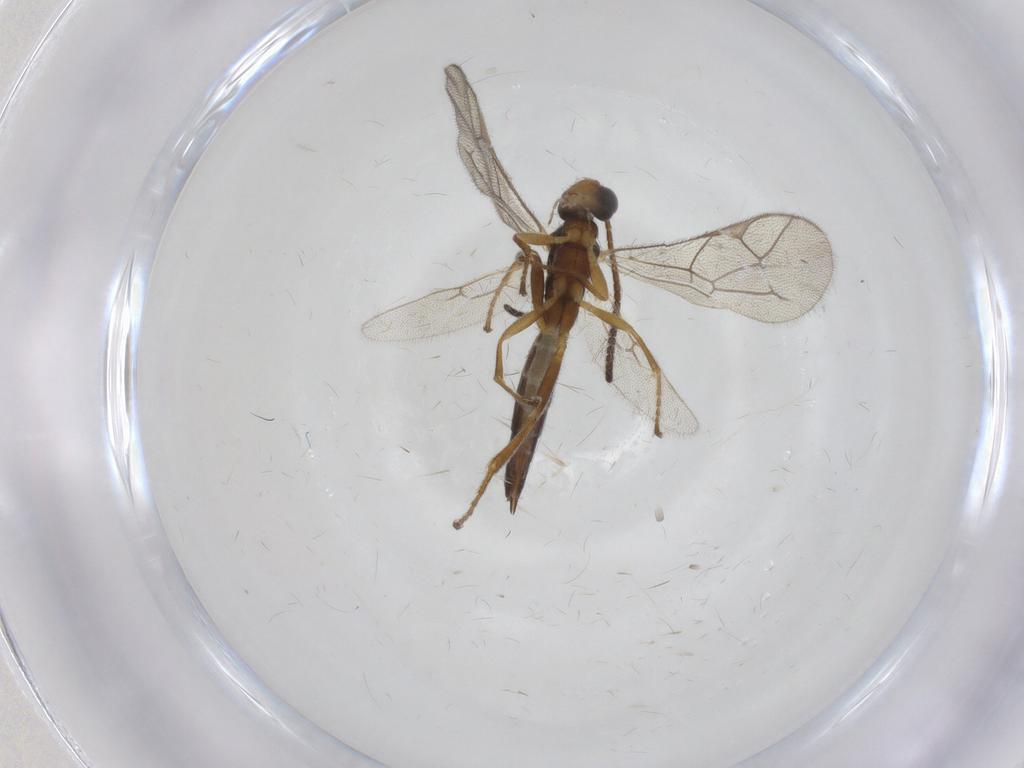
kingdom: Animalia
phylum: Arthropoda
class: Insecta
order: Hymenoptera
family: Ichneumonidae
